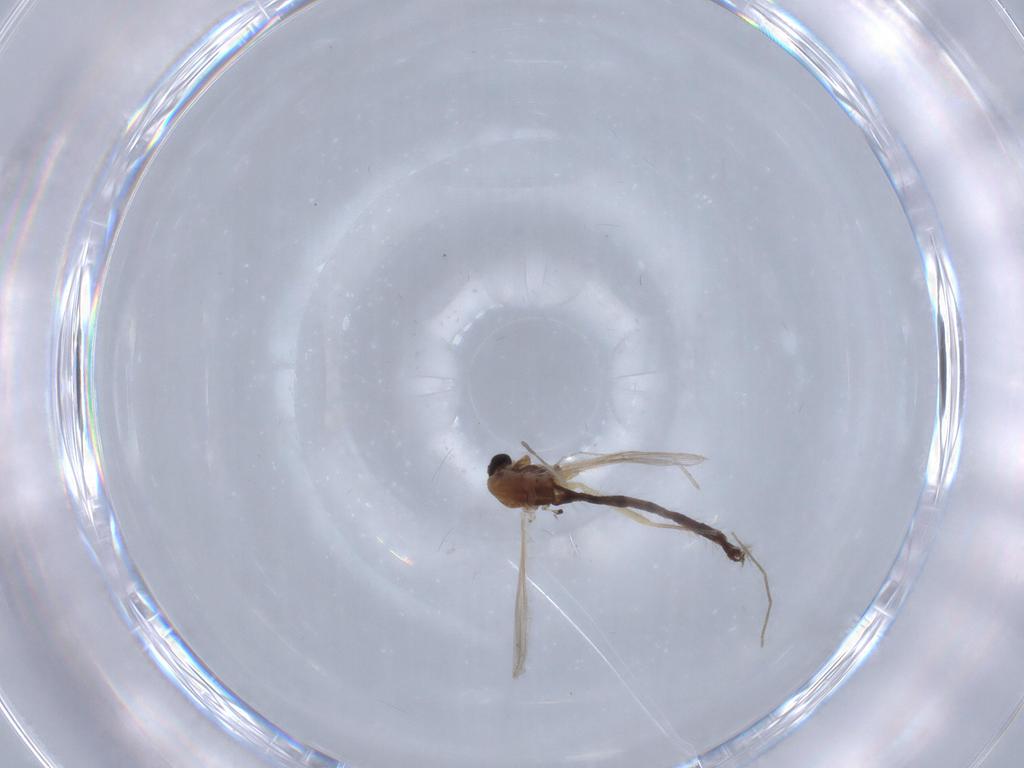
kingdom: Animalia
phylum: Arthropoda
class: Insecta
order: Diptera
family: Chironomidae
